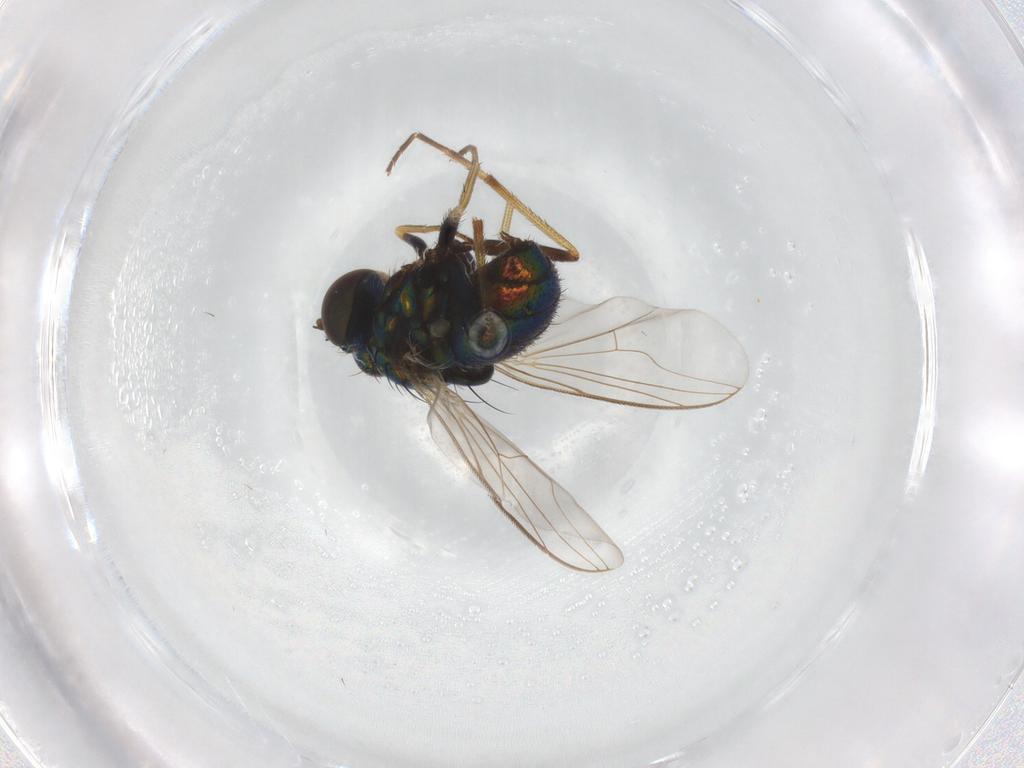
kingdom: Animalia
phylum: Arthropoda
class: Insecta
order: Diptera
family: Dolichopodidae
